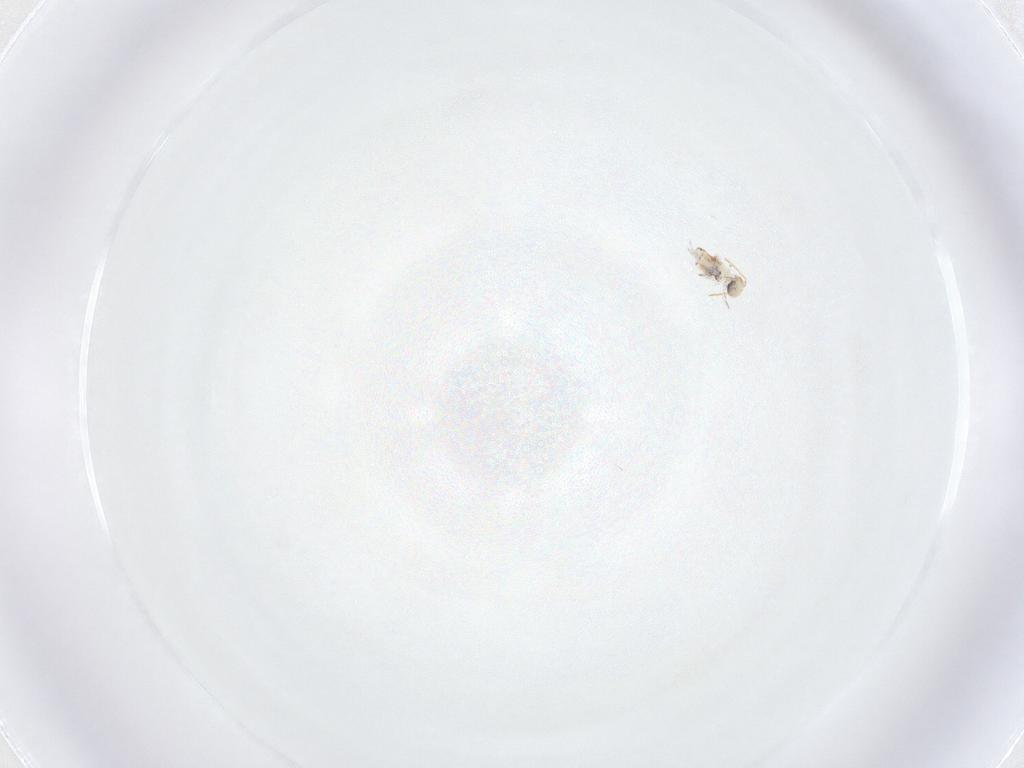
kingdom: Animalia
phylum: Arthropoda
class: Collembola
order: Symphypleona
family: Katiannidae
